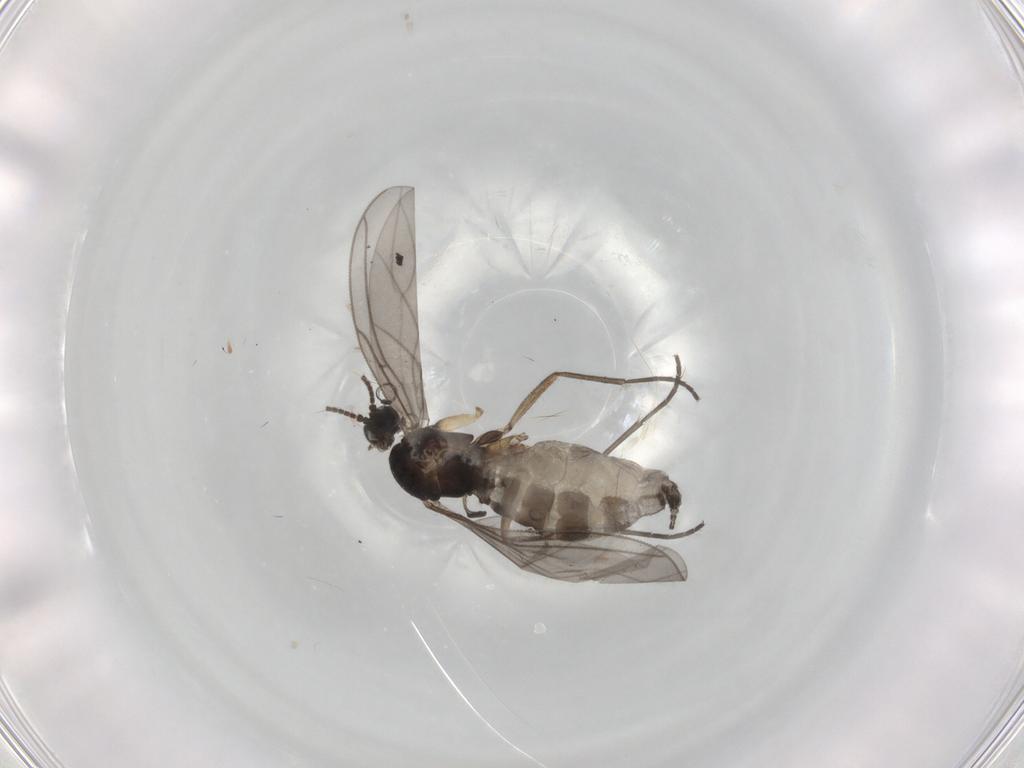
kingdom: Animalia
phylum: Arthropoda
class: Insecta
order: Diptera
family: Sciaridae
